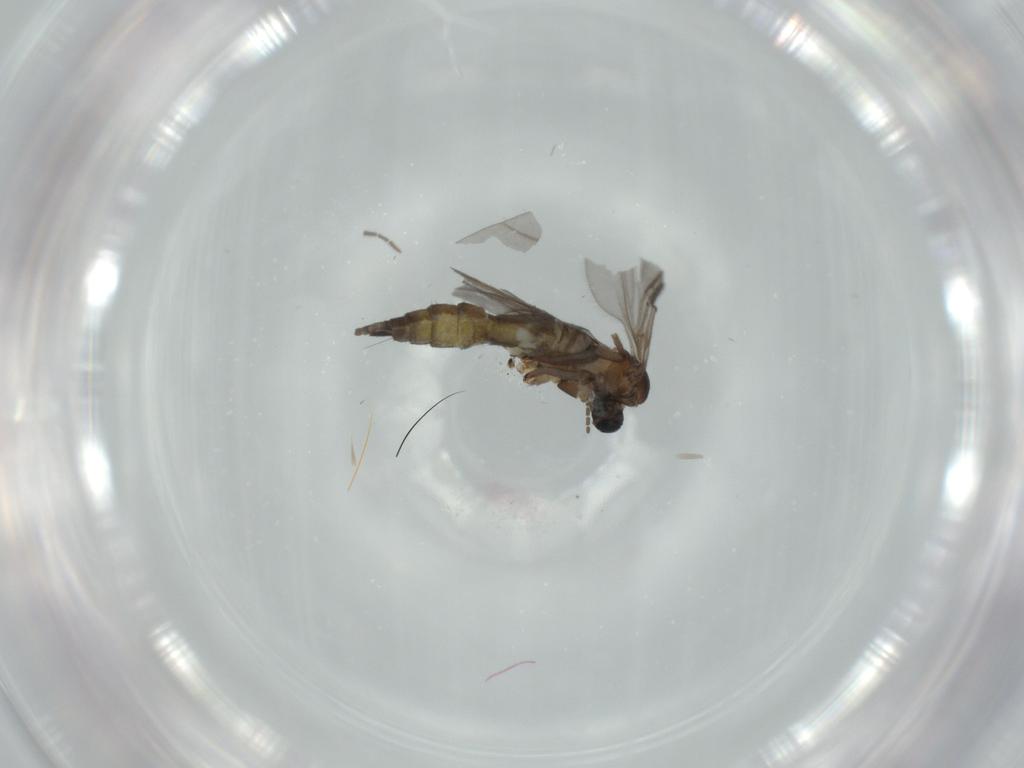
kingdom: Animalia
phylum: Arthropoda
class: Insecta
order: Diptera
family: Sciaridae
